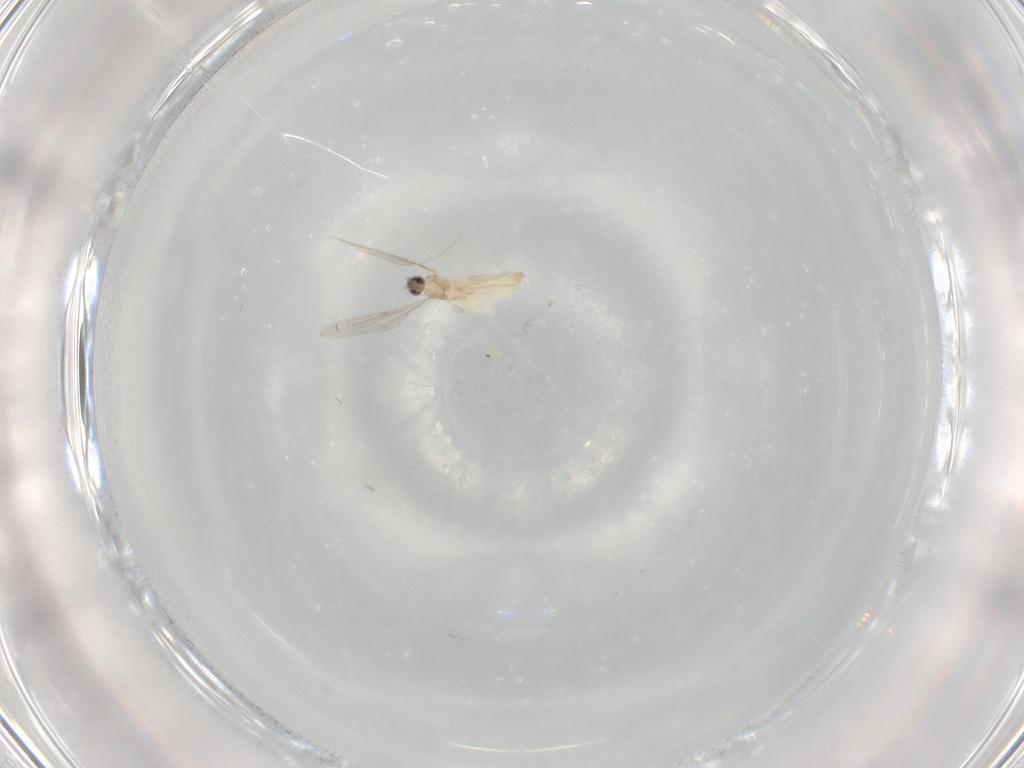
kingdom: Animalia
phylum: Arthropoda
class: Insecta
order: Diptera
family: Cecidomyiidae
